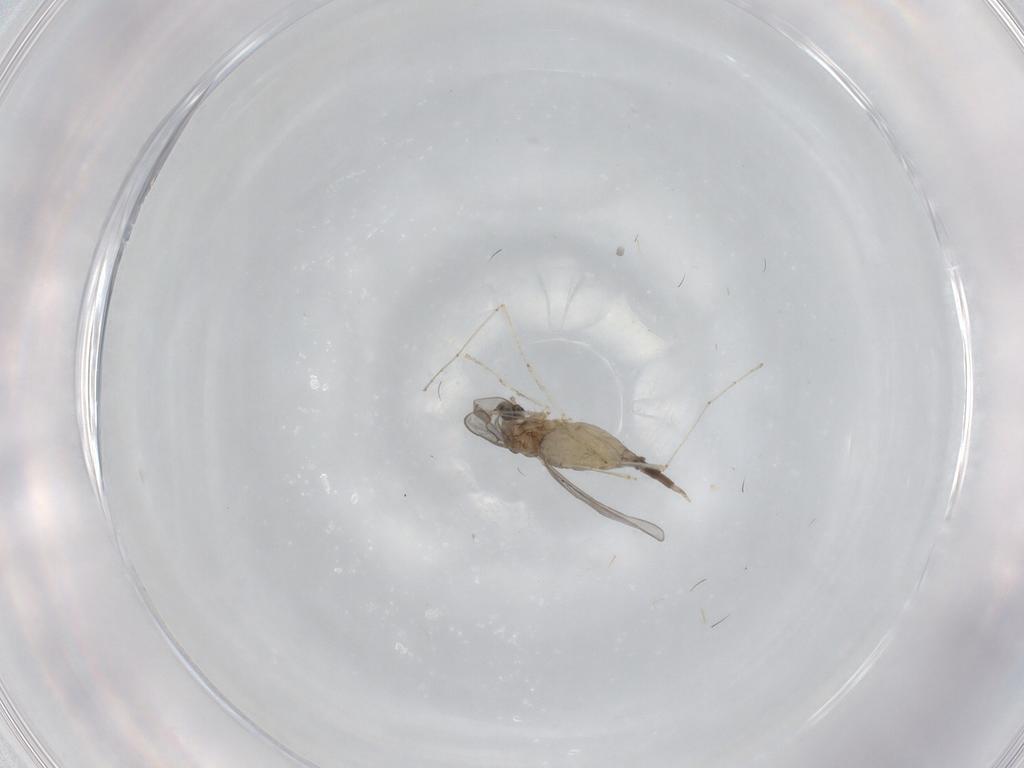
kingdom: Animalia
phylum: Arthropoda
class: Insecta
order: Diptera
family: Cecidomyiidae
